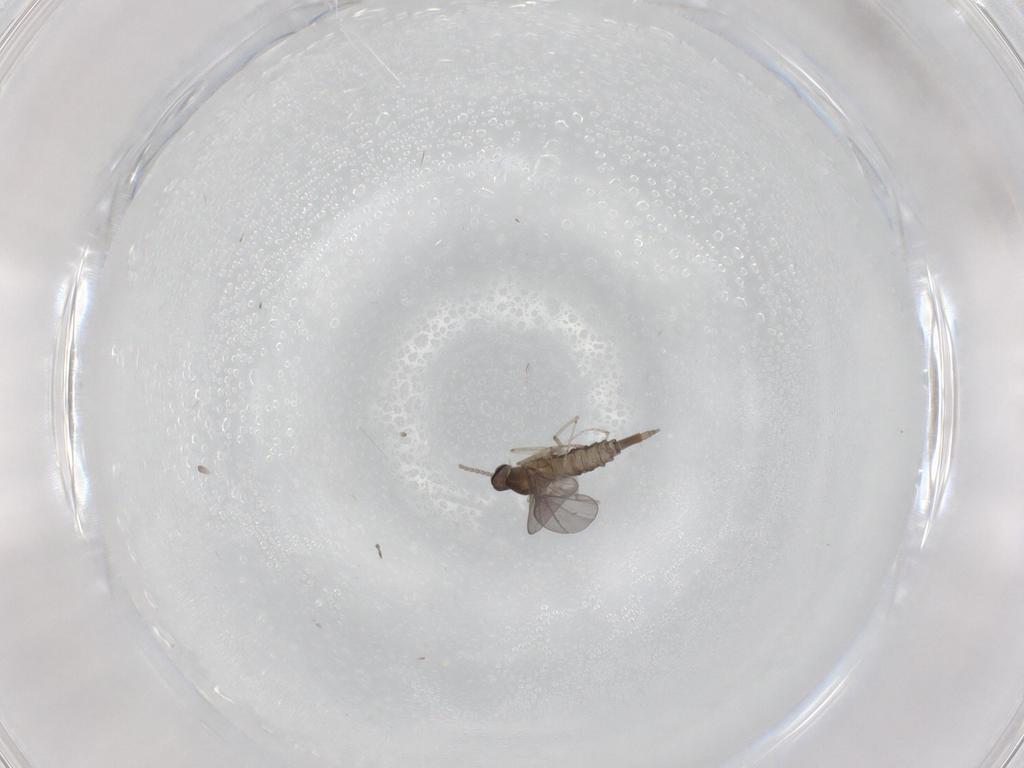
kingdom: Animalia
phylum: Arthropoda
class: Insecta
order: Diptera
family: Cecidomyiidae
